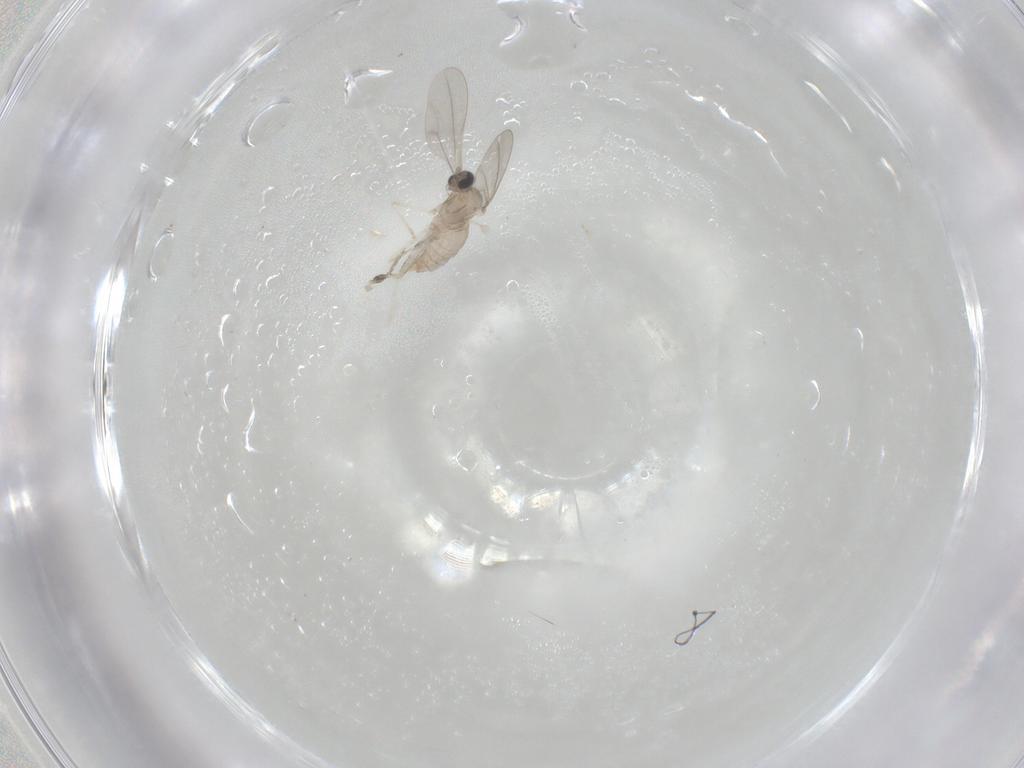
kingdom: Animalia
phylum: Arthropoda
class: Insecta
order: Diptera
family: Cecidomyiidae
